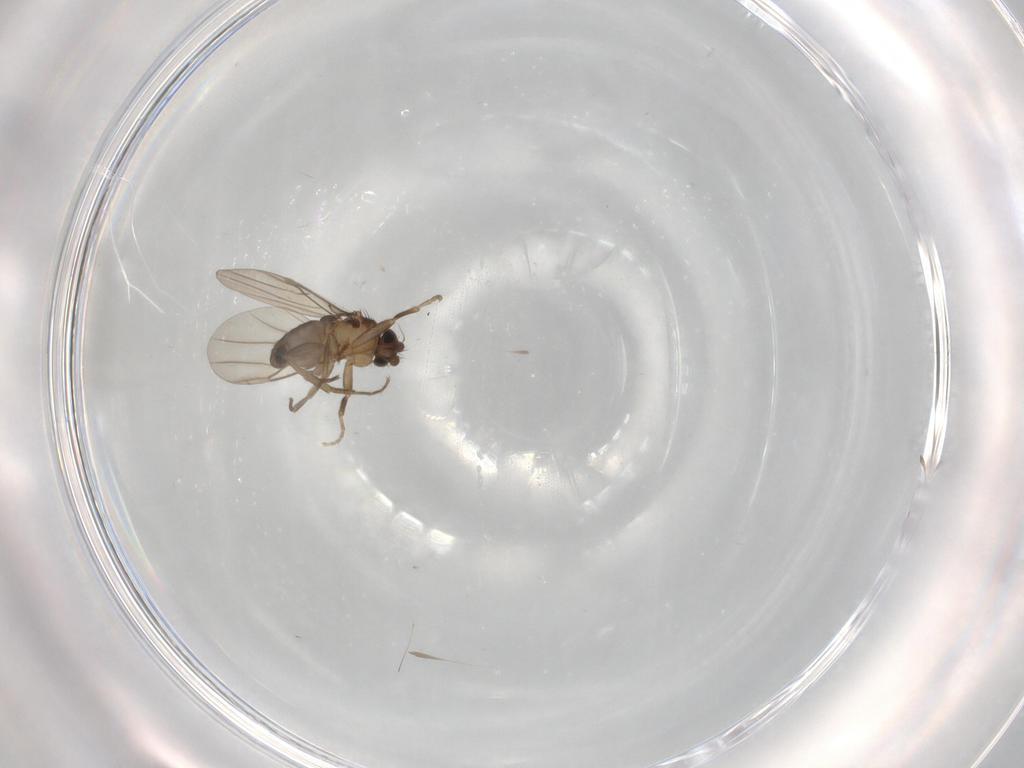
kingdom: Animalia
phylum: Arthropoda
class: Insecta
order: Diptera
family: Phoridae
